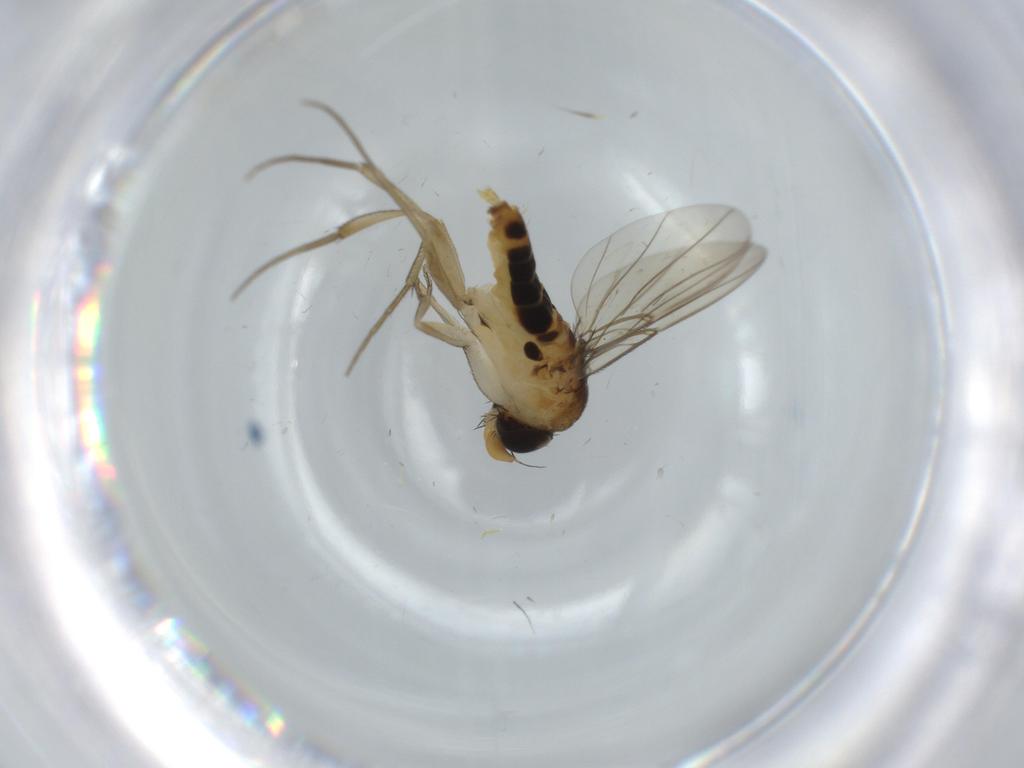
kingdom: Animalia
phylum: Arthropoda
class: Insecta
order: Diptera
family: Phoridae
